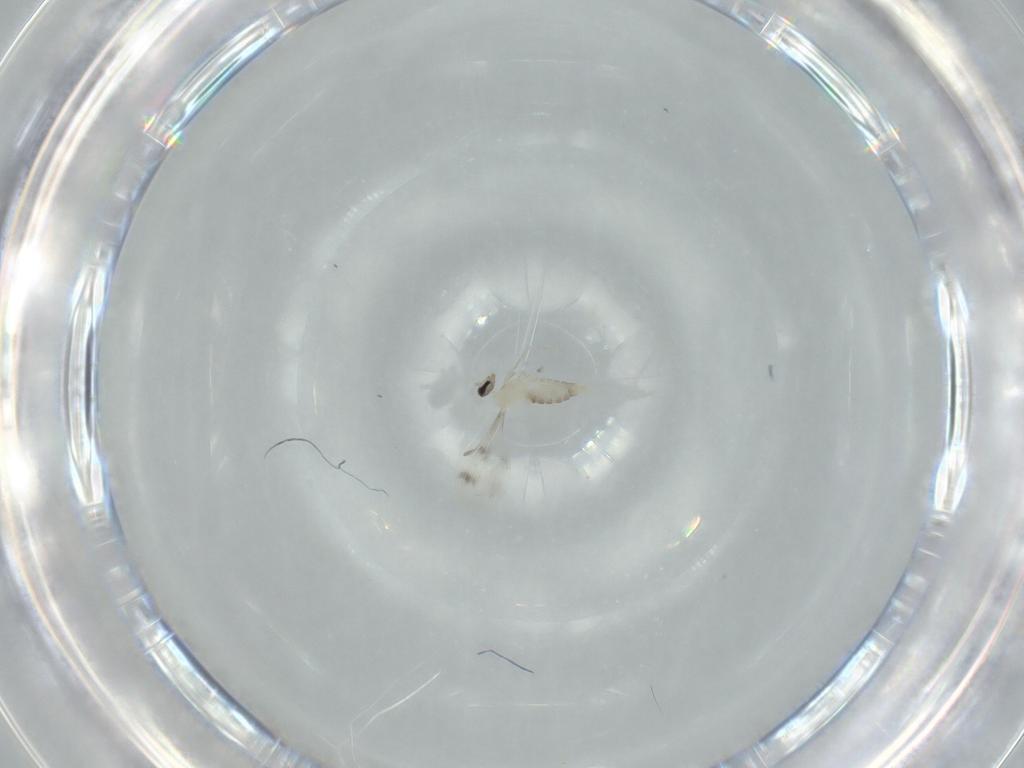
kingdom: Animalia
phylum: Arthropoda
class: Insecta
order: Diptera
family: Cecidomyiidae
